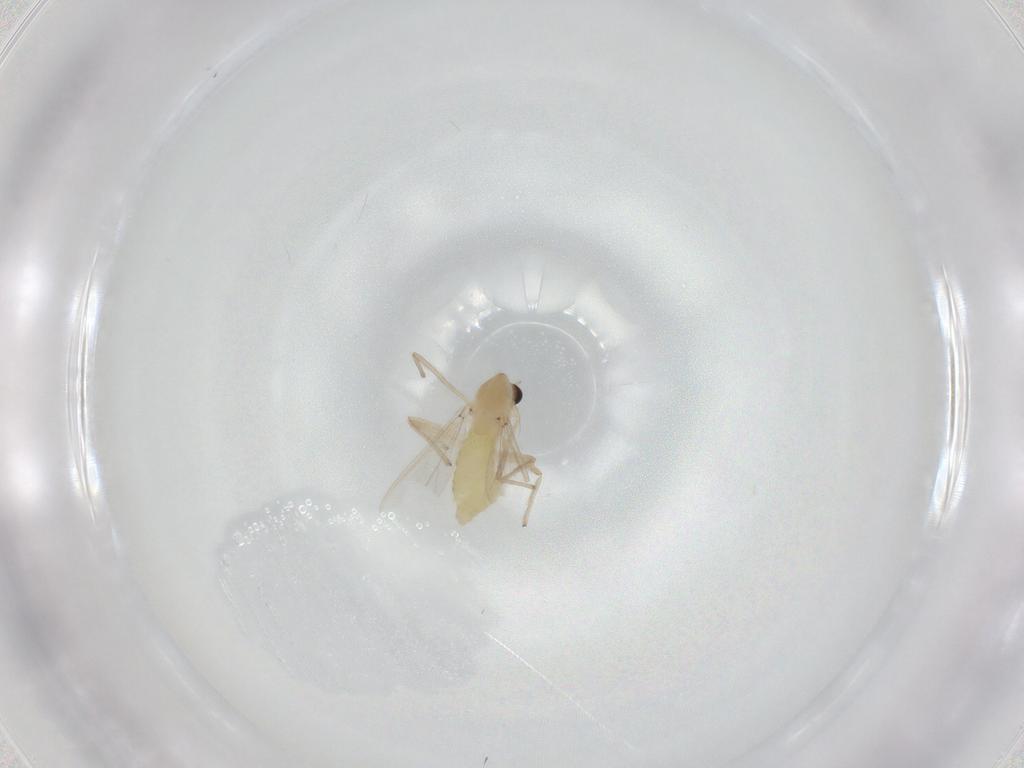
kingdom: Animalia
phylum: Arthropoda
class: Insecta
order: Diptera
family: Chironomidae
